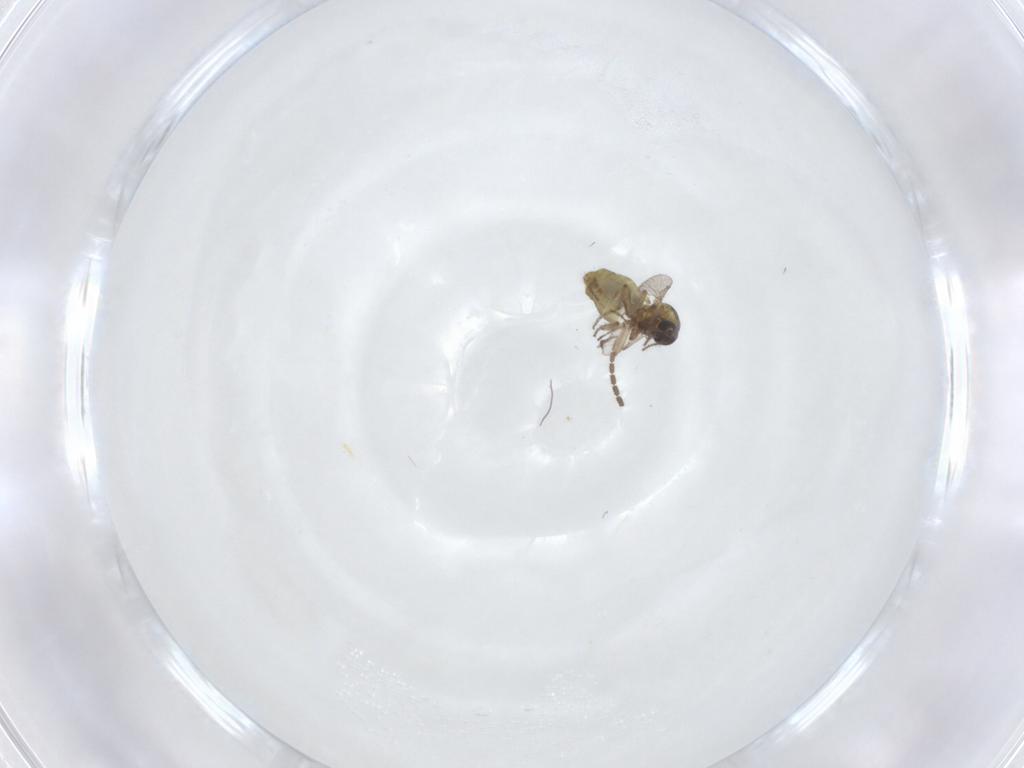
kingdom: Animalia
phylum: Arthropoda
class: Insecta
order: Diptera
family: Ceratopogonidae
